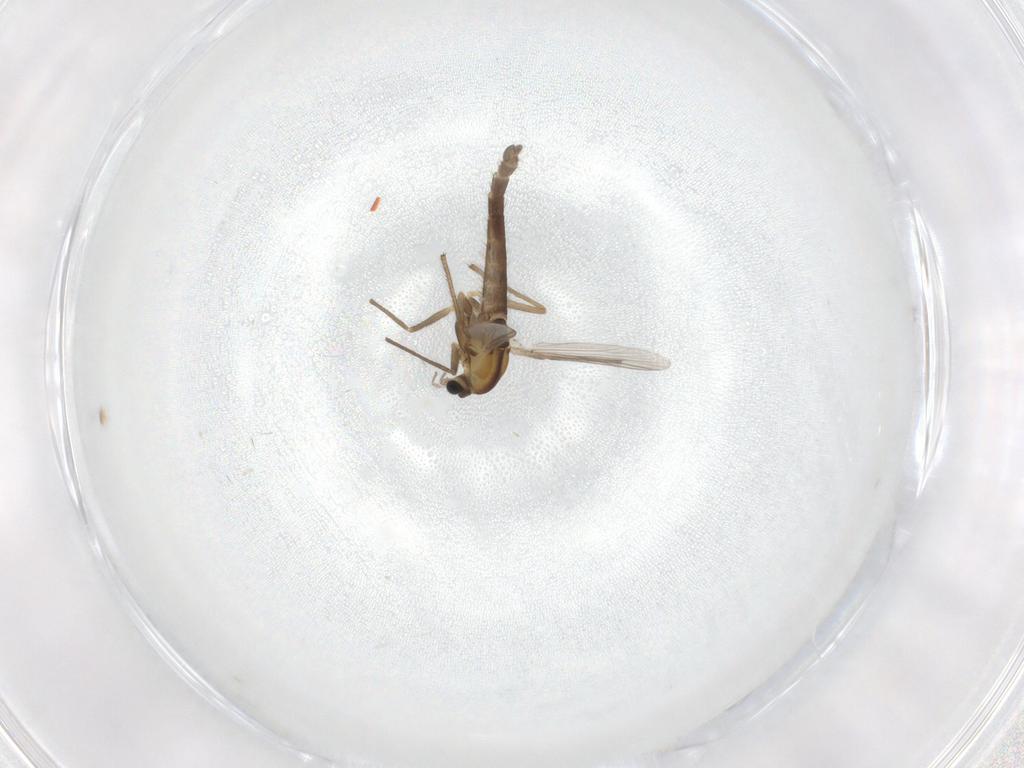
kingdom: Animalia
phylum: Arthropoda
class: Insecta
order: Diptera
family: Chironomidae
